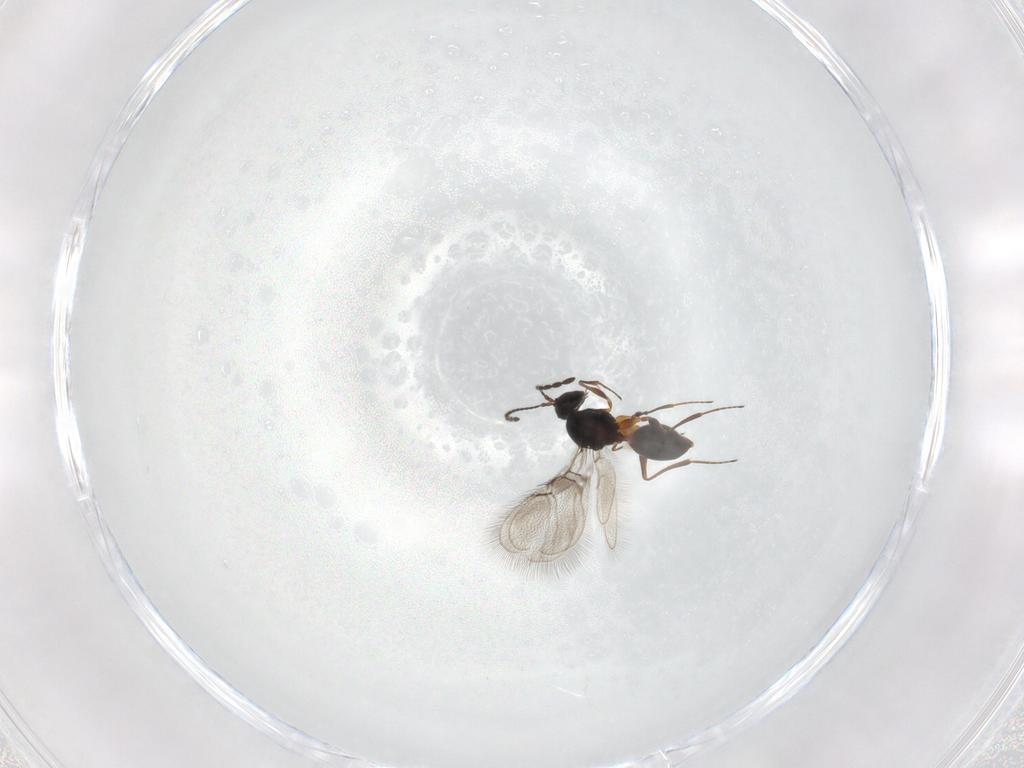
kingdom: Animalia
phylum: Arthropoda
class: Insecta
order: Hymenoptera
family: Figitidae
